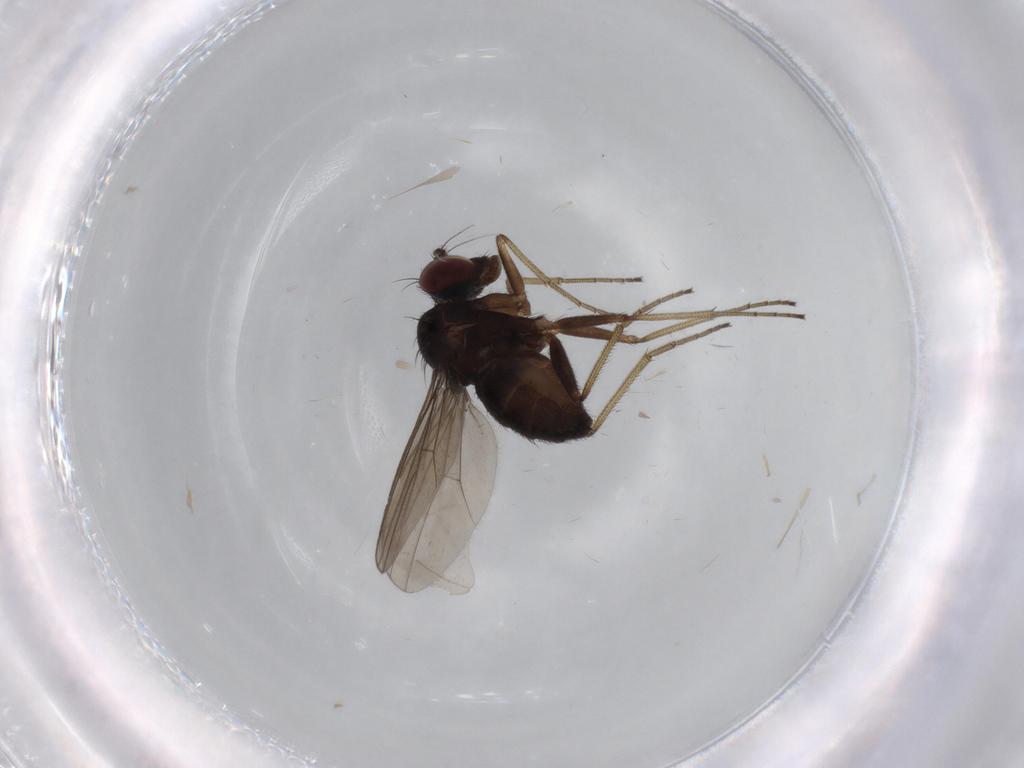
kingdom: Animalia
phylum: Arthropoda
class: Insecta
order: Diptera
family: Dolichopodidae
